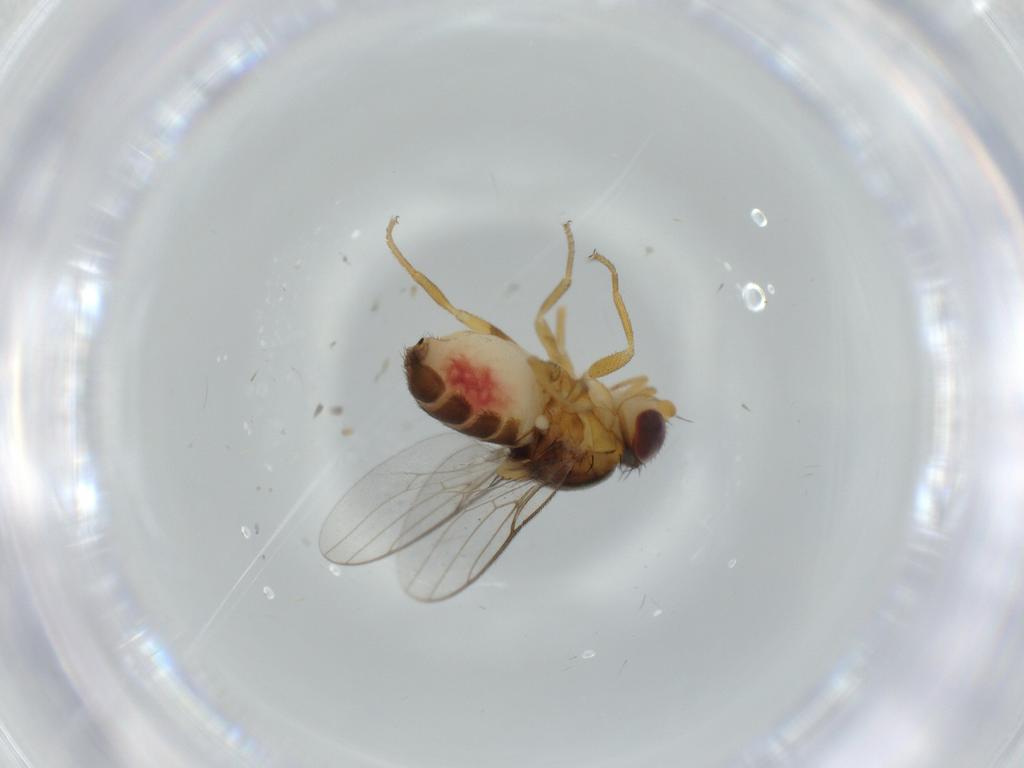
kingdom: Animalia
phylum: Arthropoda
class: Insecta
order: Diptera
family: Chloropidae
